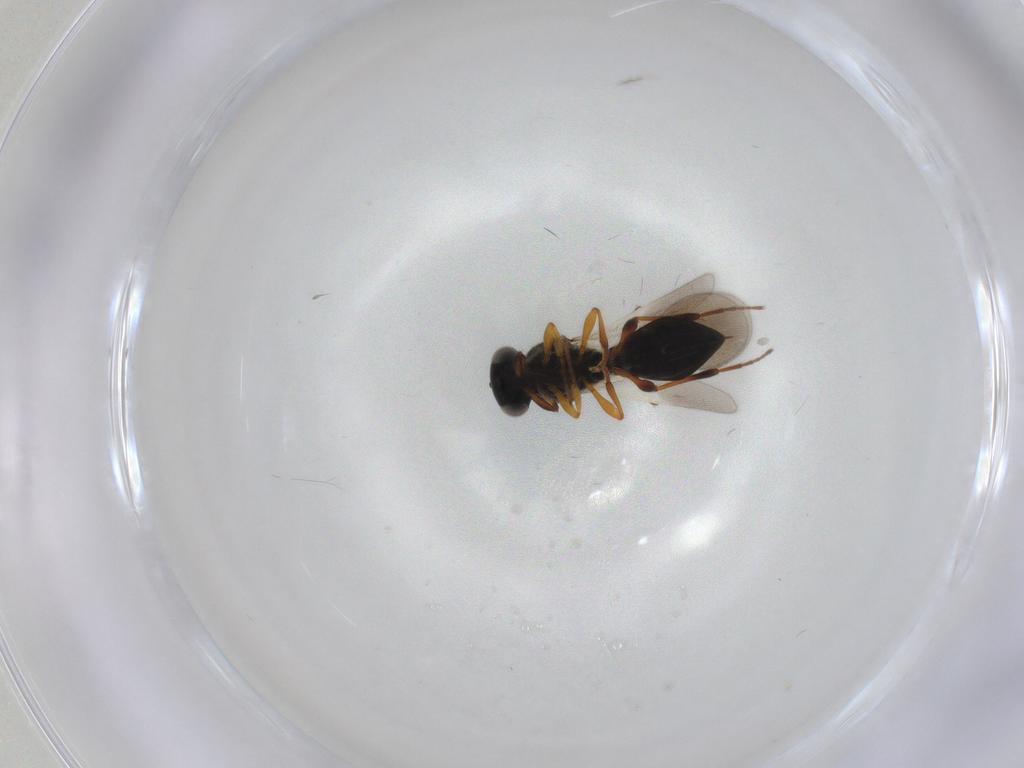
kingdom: Animalia
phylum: Arthropoda
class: Insecta
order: Hymenoptera
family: Platygastridae
